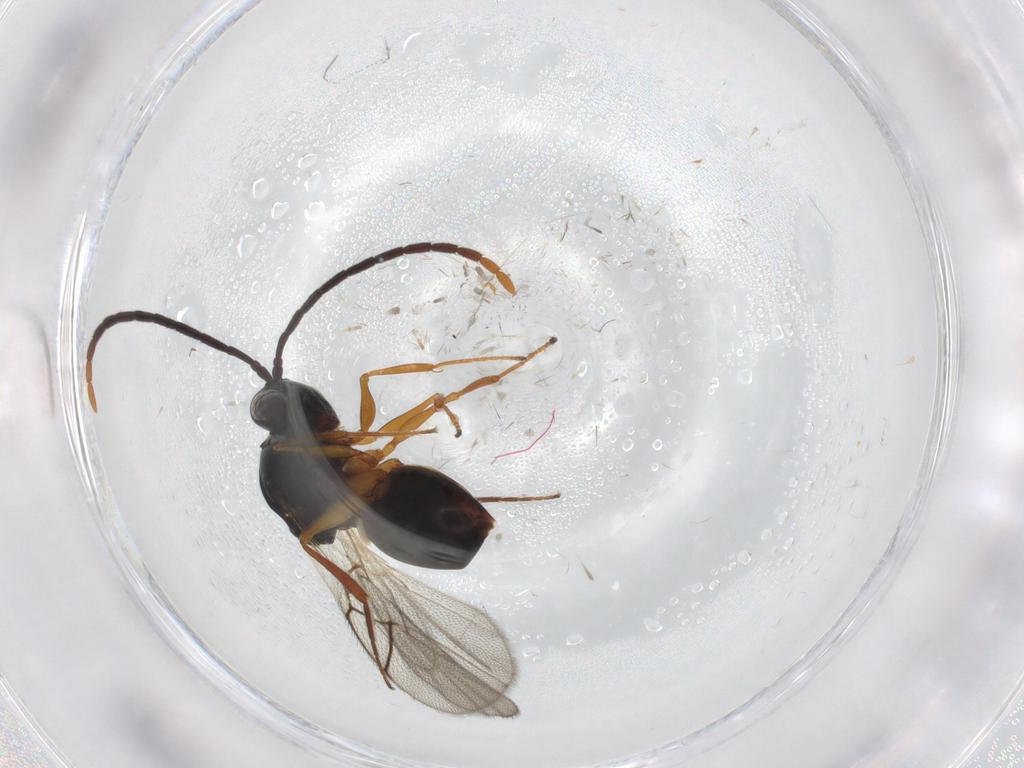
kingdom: Animalia
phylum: Arthropoda
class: Insecta
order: Hymenoptera
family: Figitidae
